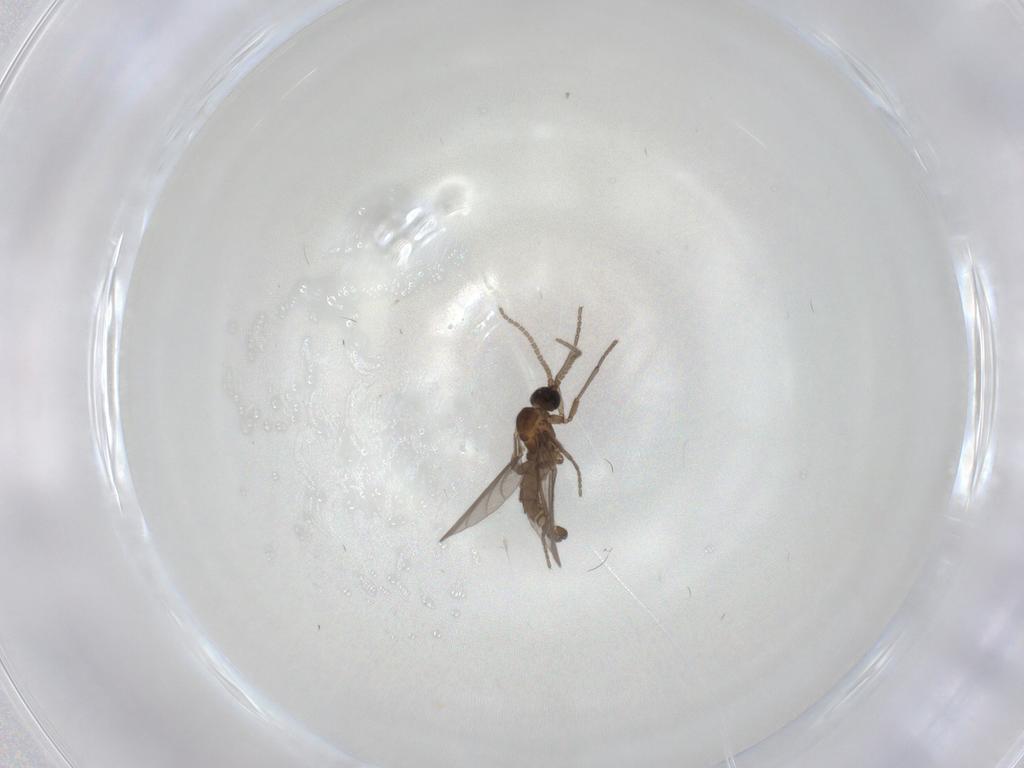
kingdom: Animalia
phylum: Arthropoda
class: Insecta
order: Diptera
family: Sciaridae
